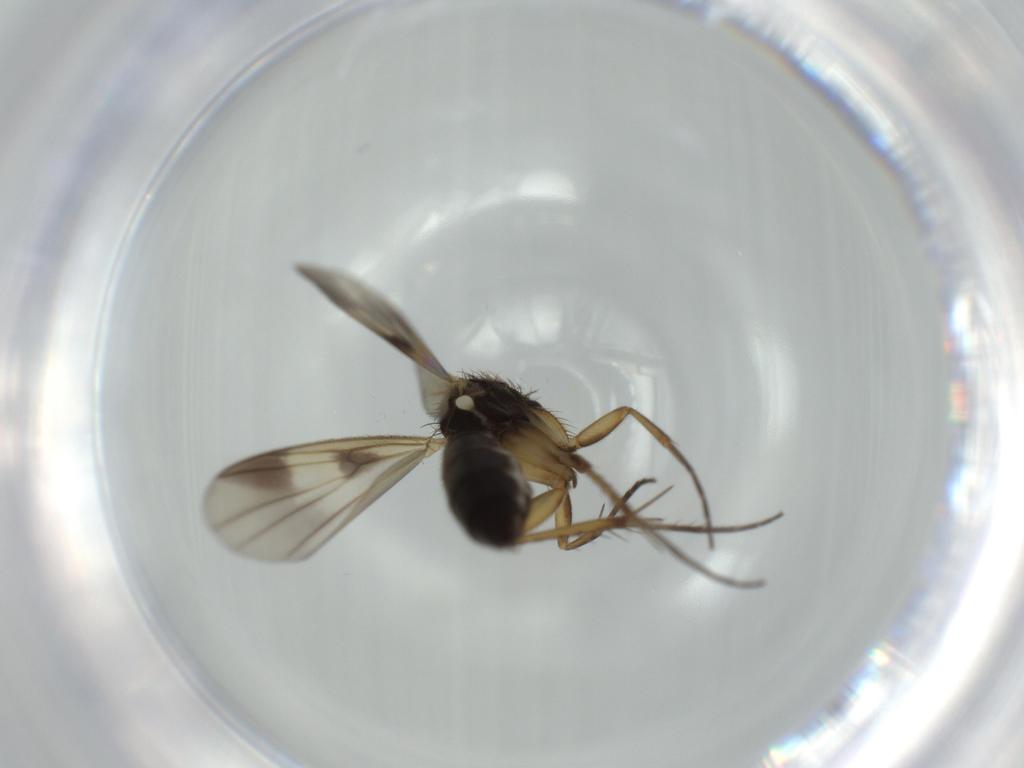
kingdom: Animalia
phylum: Arthropoda
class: Insecta
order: Diptera
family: Phoridae
